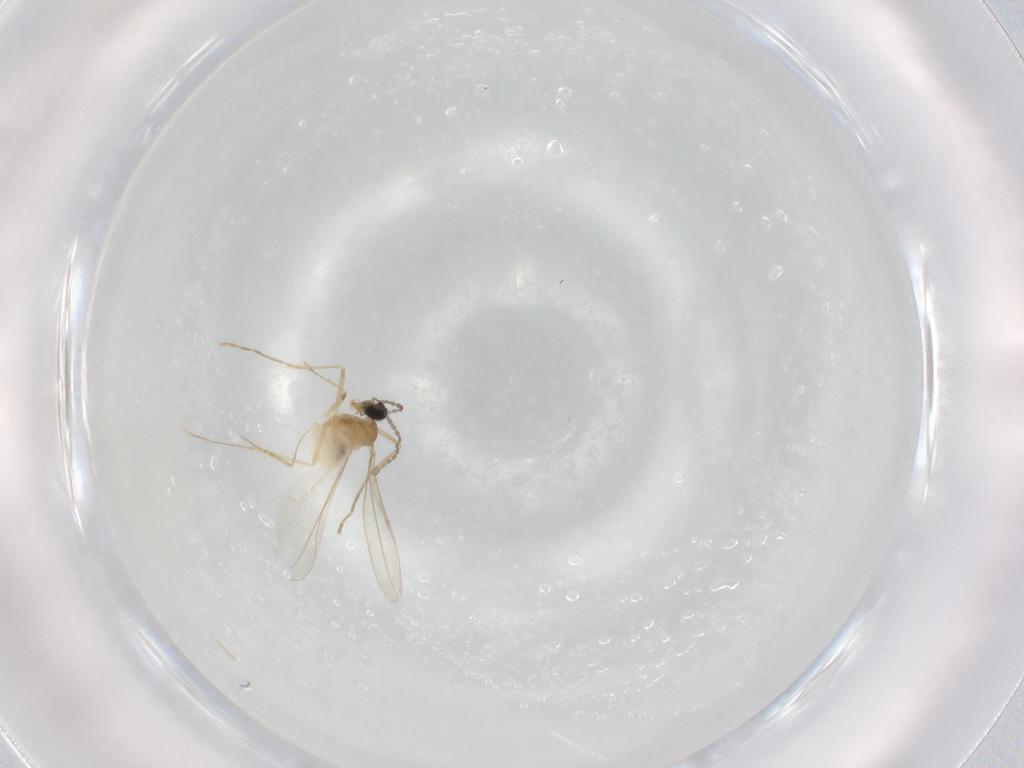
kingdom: Animalia
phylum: Arthropoda
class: Insecta
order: Diptera
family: Cecidomyiidae
